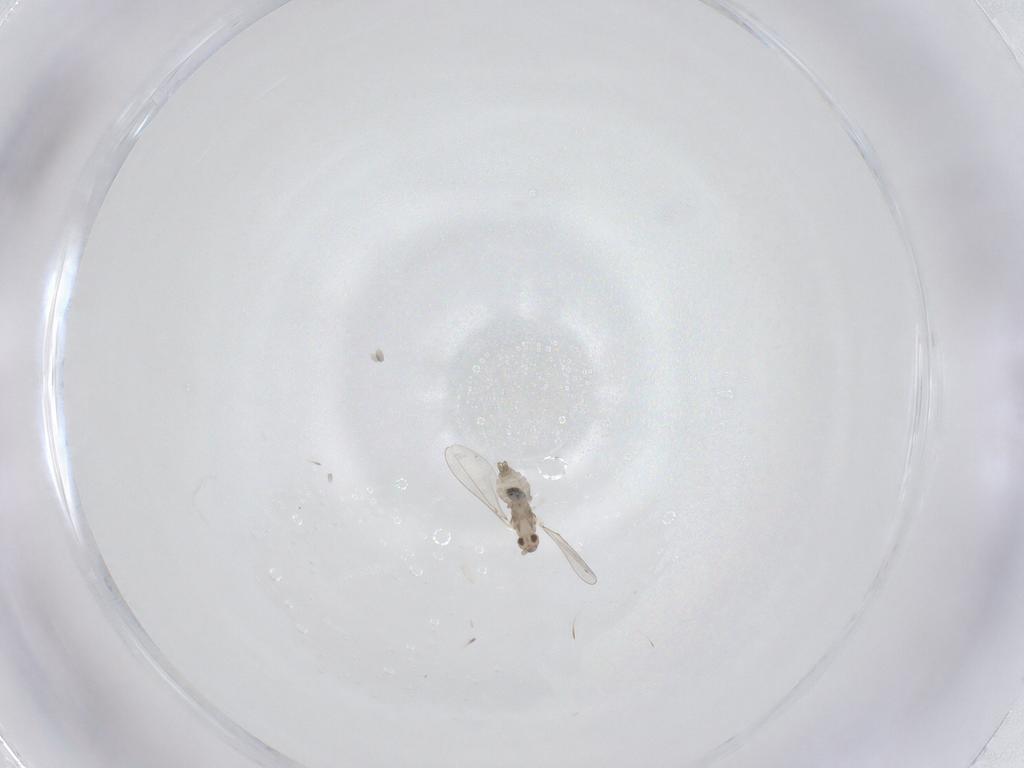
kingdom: Animalia
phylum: Arthropoda
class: Insecta
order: Diptera
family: Cecidomyiidae
